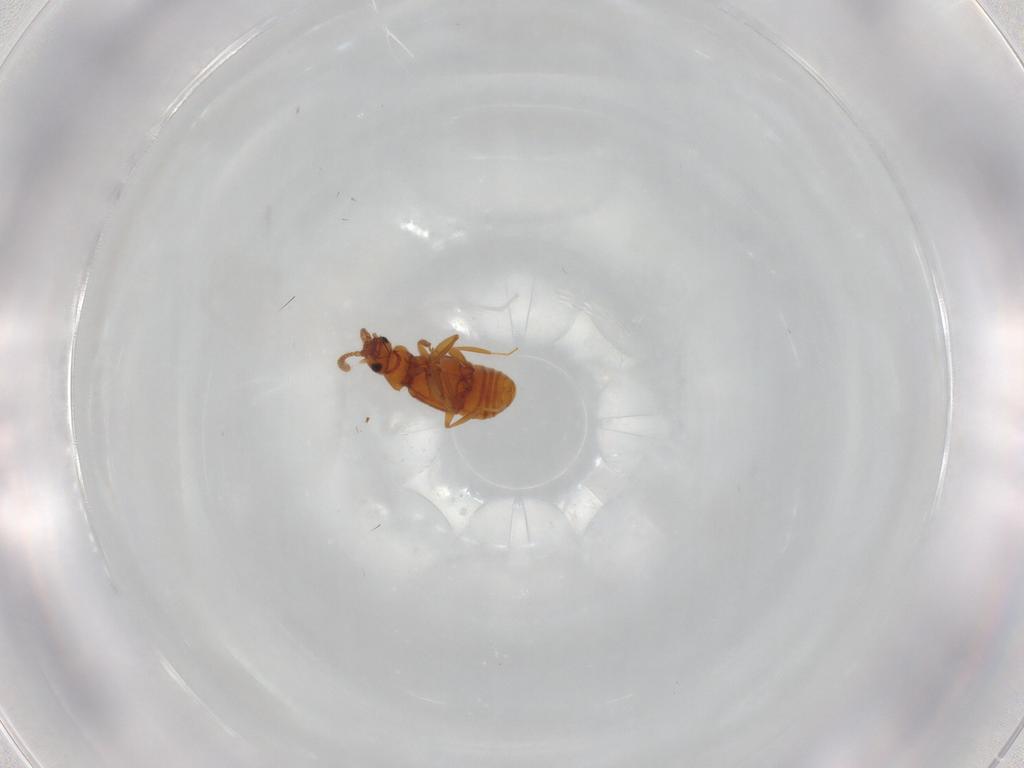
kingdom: Animalia
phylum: Arthropoda
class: Insecta
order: Coleoptera
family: Staphylinidae
